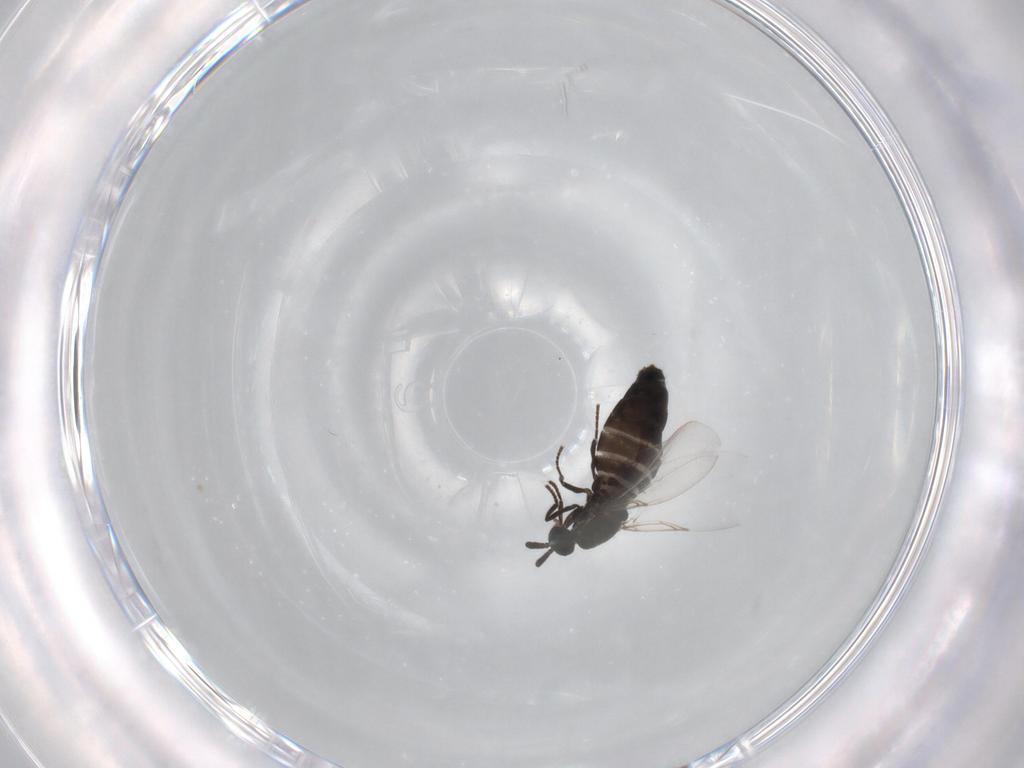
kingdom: Animalia
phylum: Arthropoda
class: Insecta
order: Diptera
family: Scatopsidae
